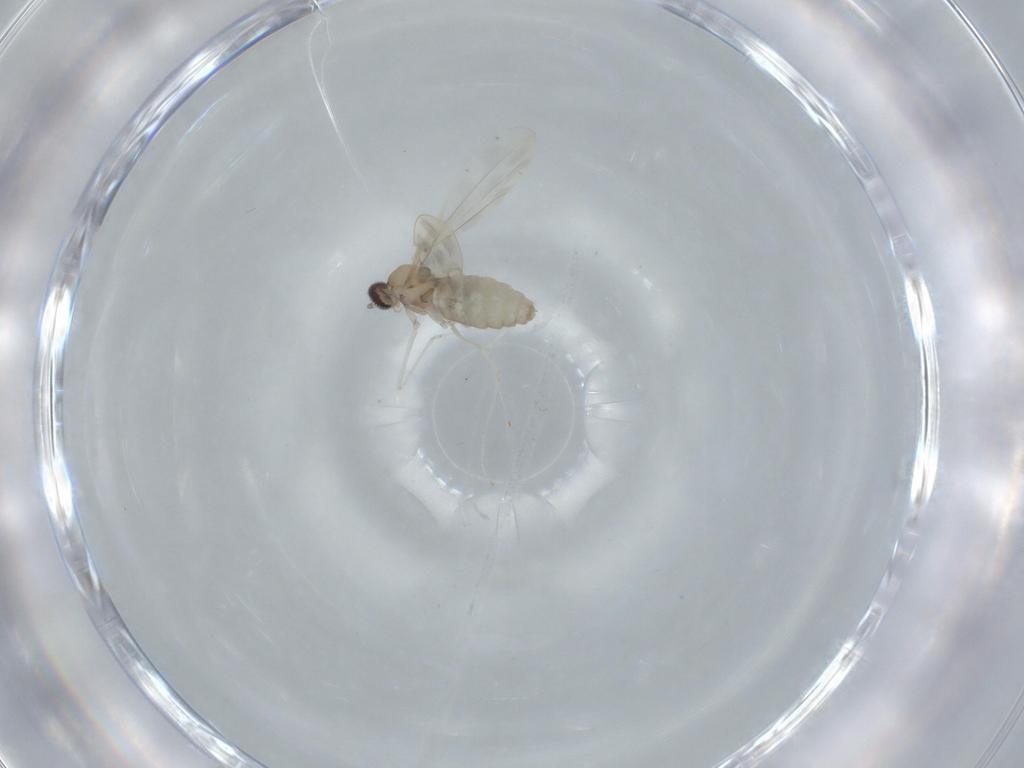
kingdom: Animalia
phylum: Arthropoda
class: Insecta
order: Diptera
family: Cecidomyiidae
